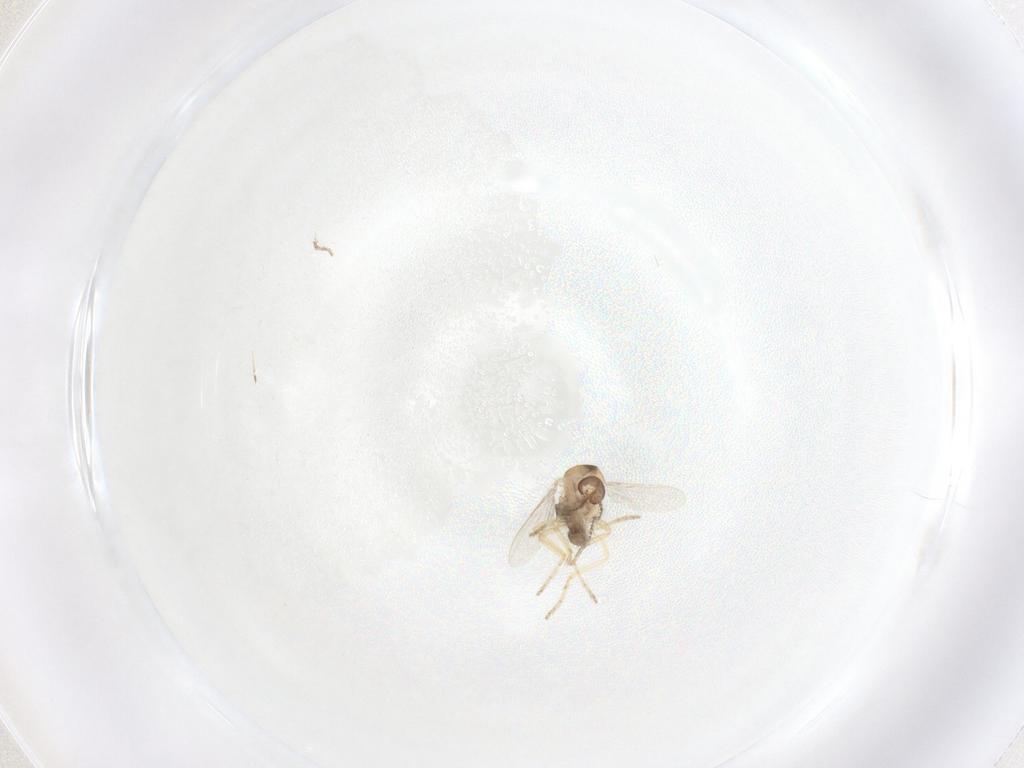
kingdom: Animalia
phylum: Arthropoda
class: Insecta
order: Diptera
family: Ceratopogonidae
